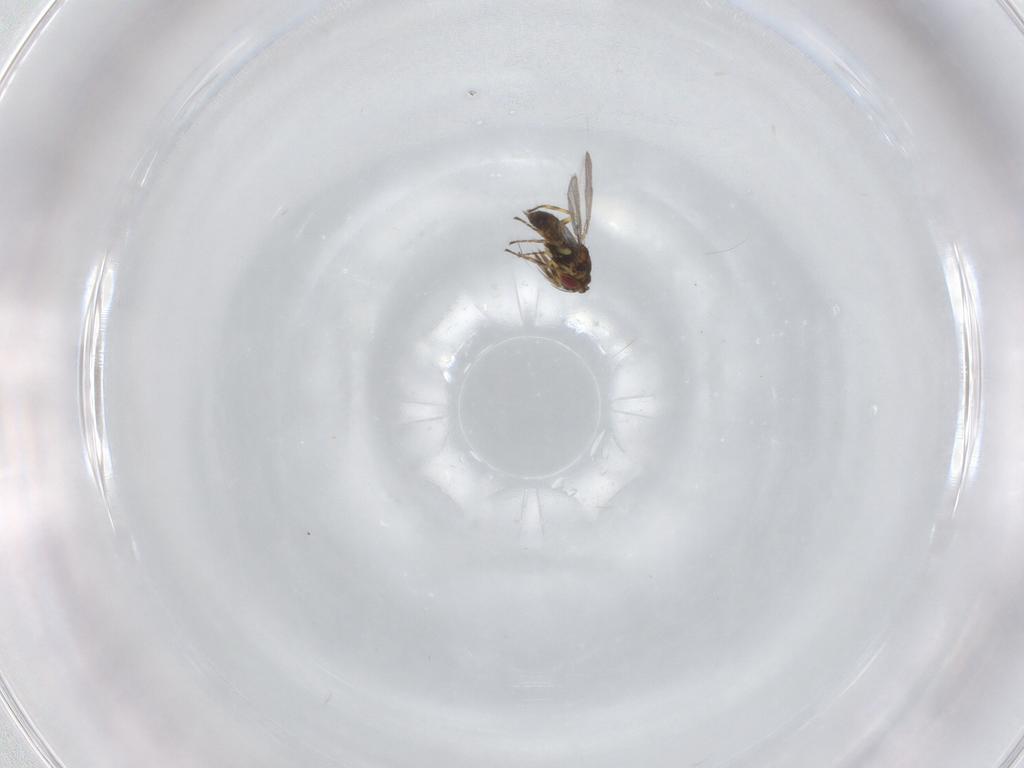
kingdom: Animalia
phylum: Arthropoda
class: Insecta
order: Hymenoptera
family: Eulophidae
